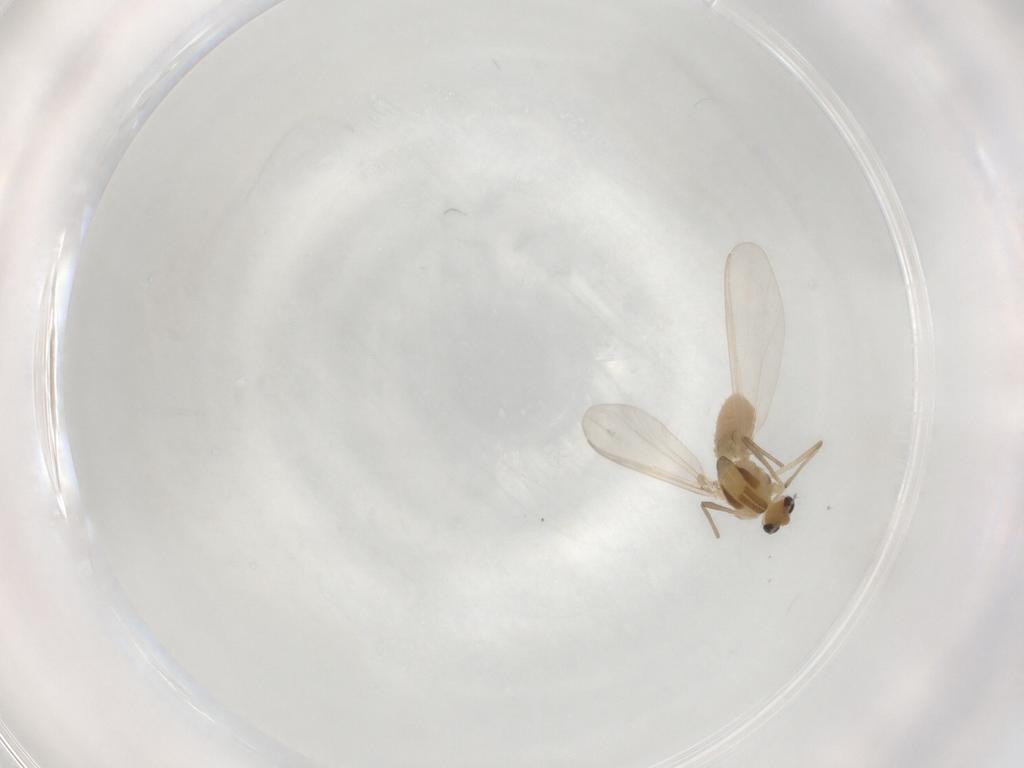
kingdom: Animalia
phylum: Arthropoda
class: Insecta
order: Diptera
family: Chironomidae
